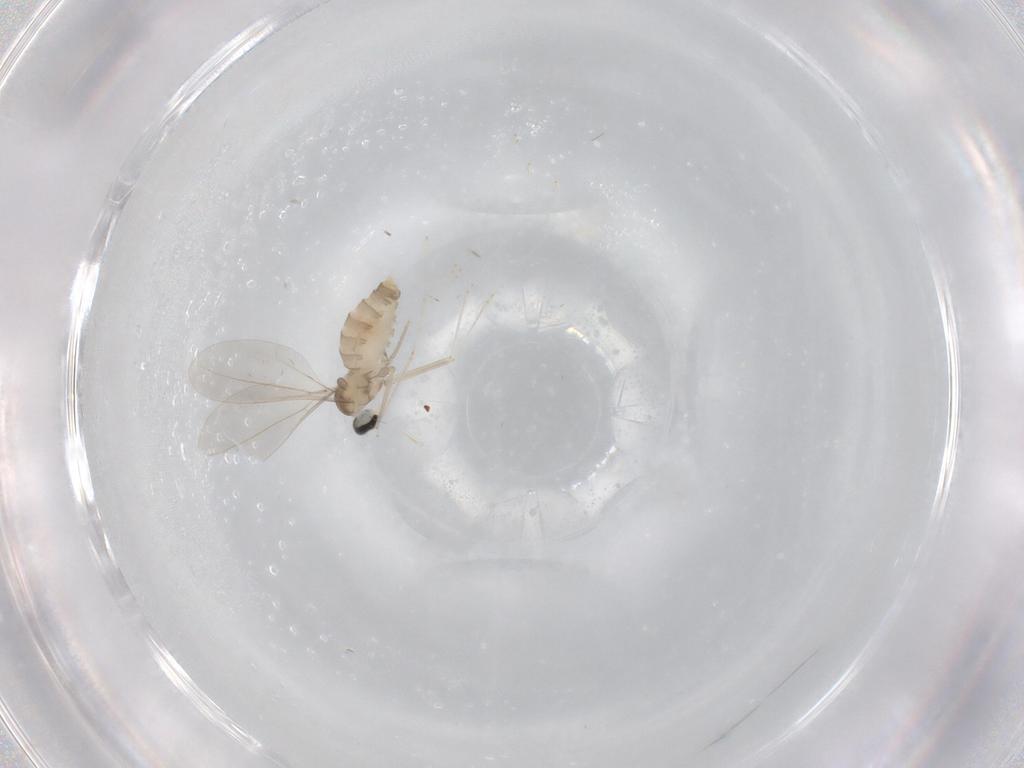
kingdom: Animalia
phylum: Arthropoda
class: Insecta
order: Diptera
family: Cecidomyiidae
